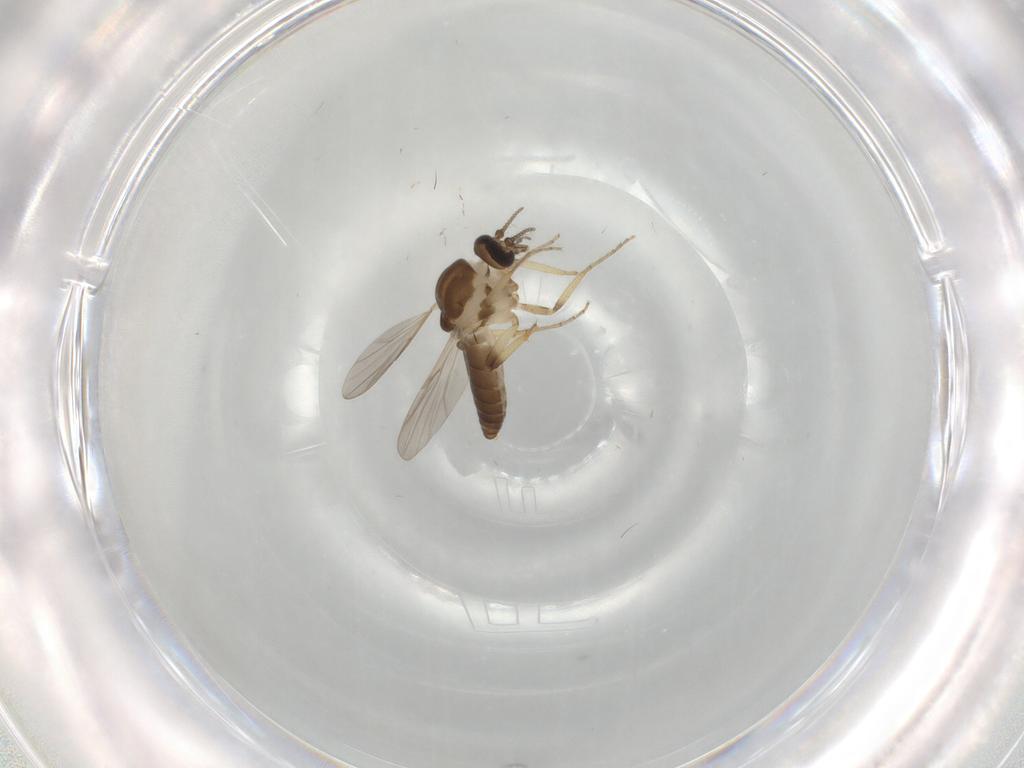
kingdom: Animalia
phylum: Arthropoda
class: Insecta
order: Diptera
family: Ceratopogonidae
